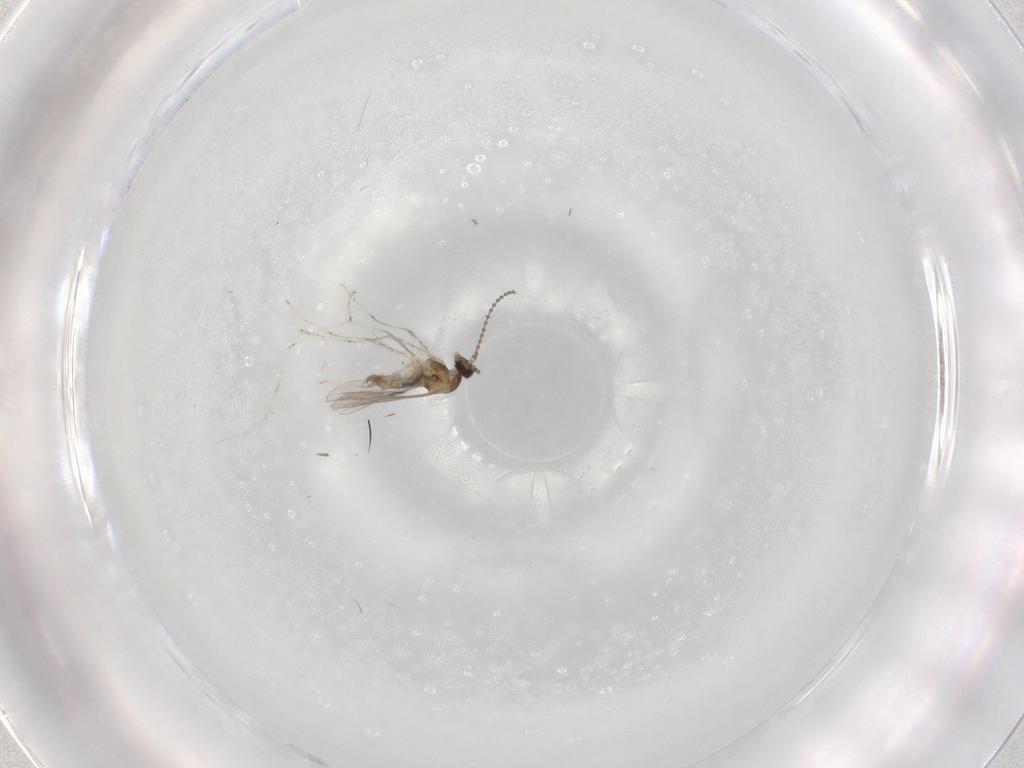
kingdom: Animalia
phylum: Arthropoda
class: Insecta
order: Diptera
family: Cecidomyiidae
